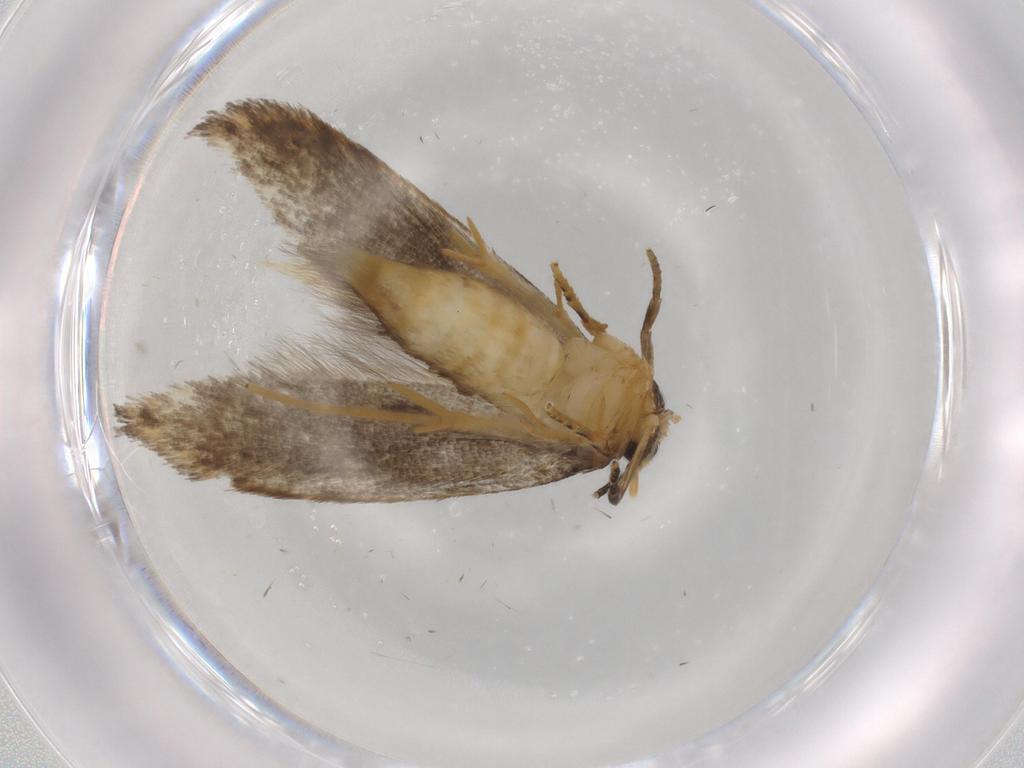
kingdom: Animalia
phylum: Arthropoda
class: Insecta
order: Lepidoptera
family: Tineidae
